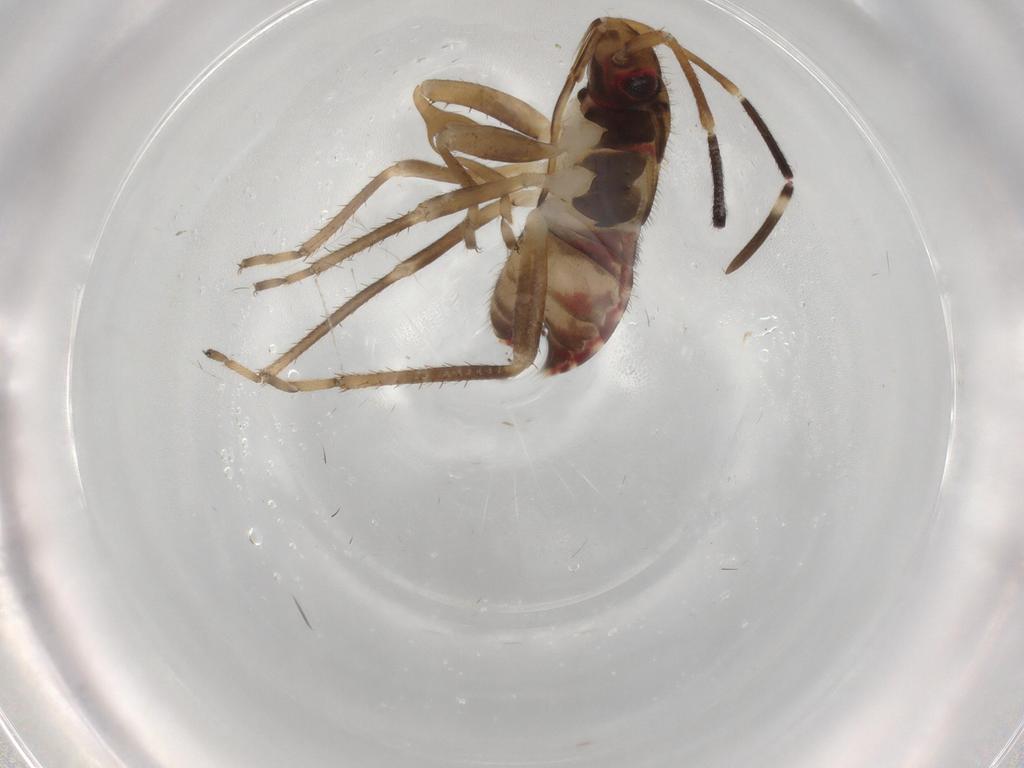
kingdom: Animalia
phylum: Arthropoda
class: Insecta
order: Hemiptera
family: Rhyparochromidae
